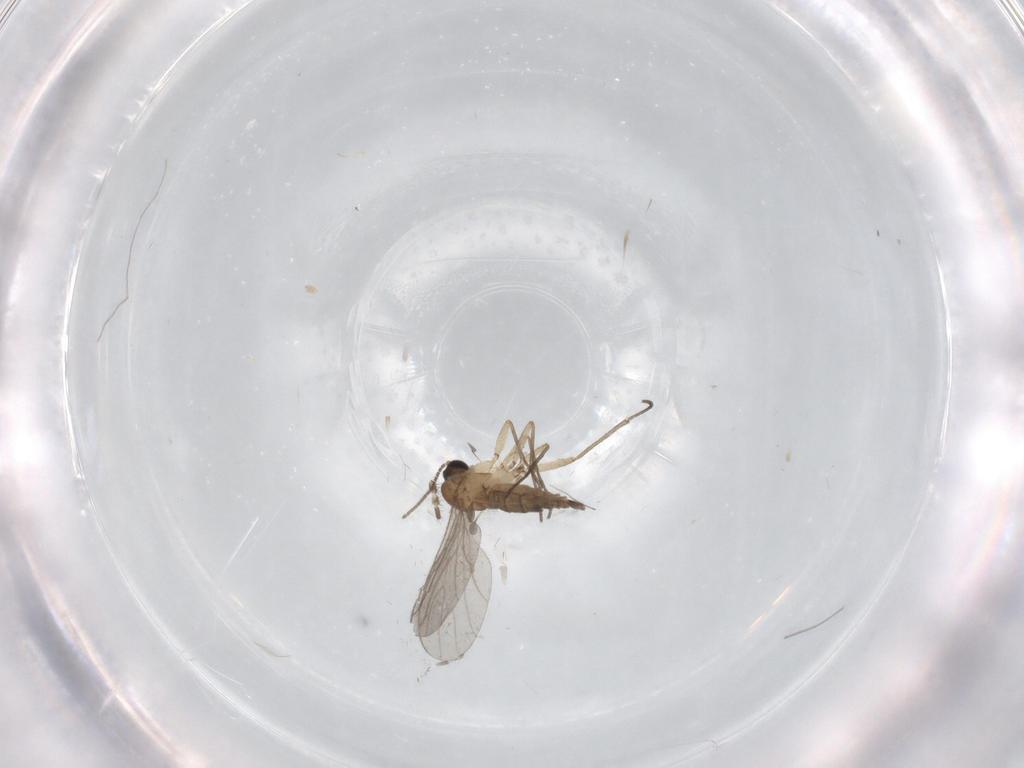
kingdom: Animalia
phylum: Arthropoda
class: Insecta
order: Diptera
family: Sciaridae
